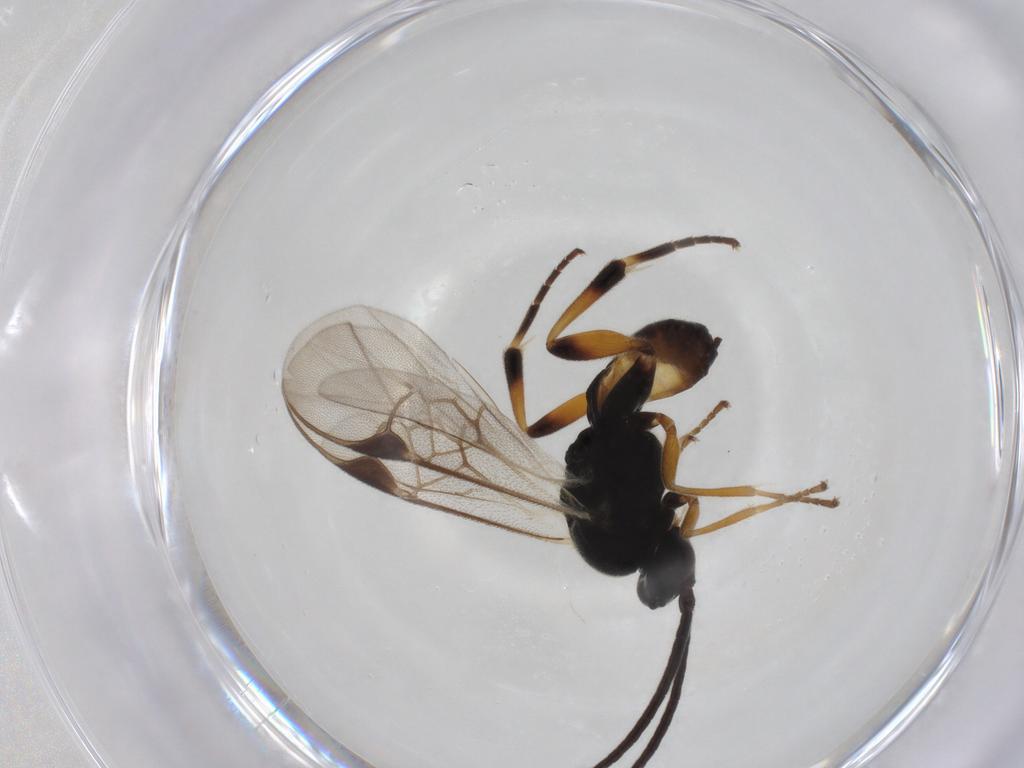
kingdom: Animalia
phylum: Arthropoda
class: Insecta
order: Hymenoptera
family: Braconidae
